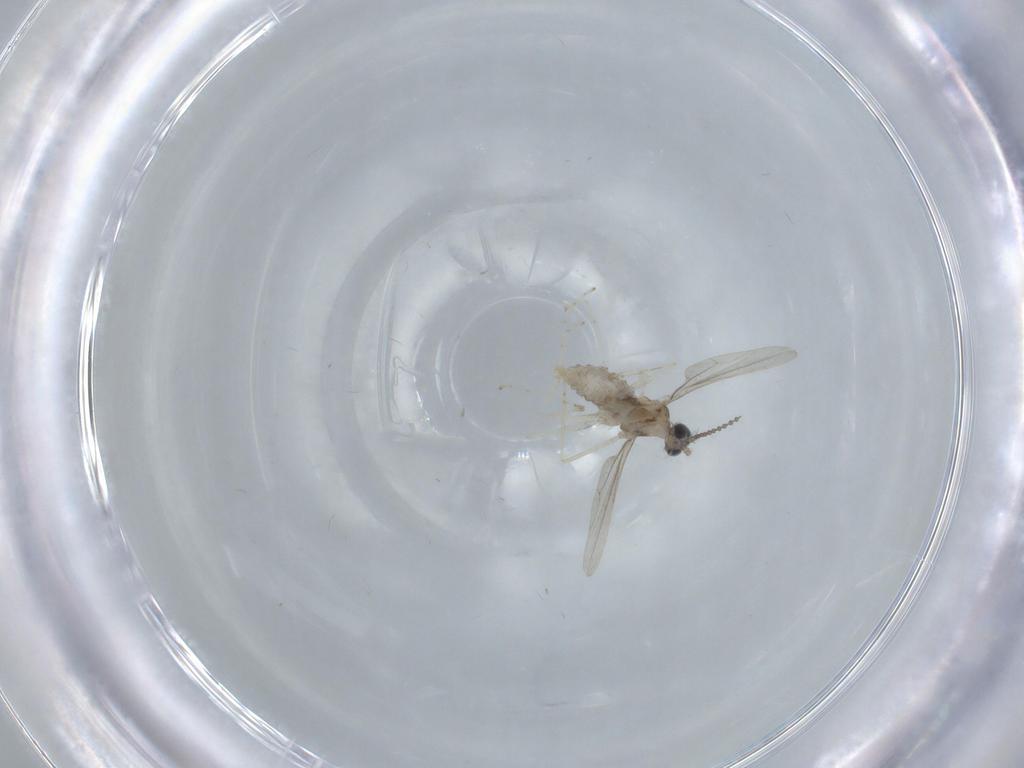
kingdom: Animalia
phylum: Arthropoda
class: Insecta
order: Diptera
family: Cecidomyiidae
